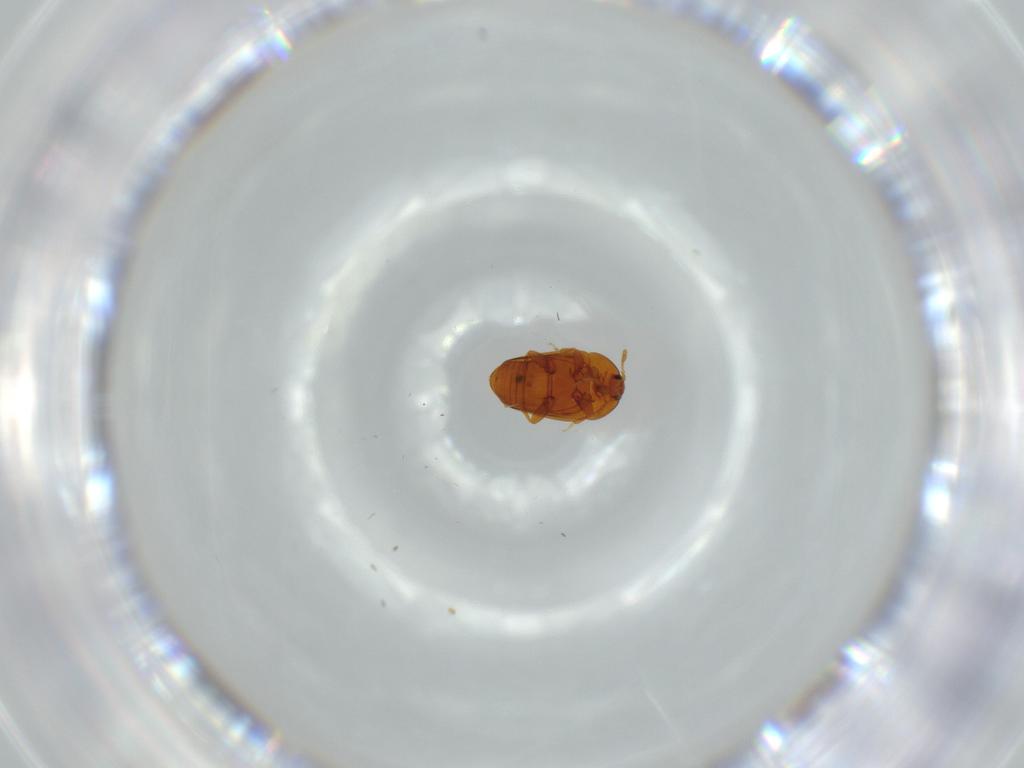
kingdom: Animalia
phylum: Arthropoda
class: Insecta
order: Coleoptera
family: Corylophidae
